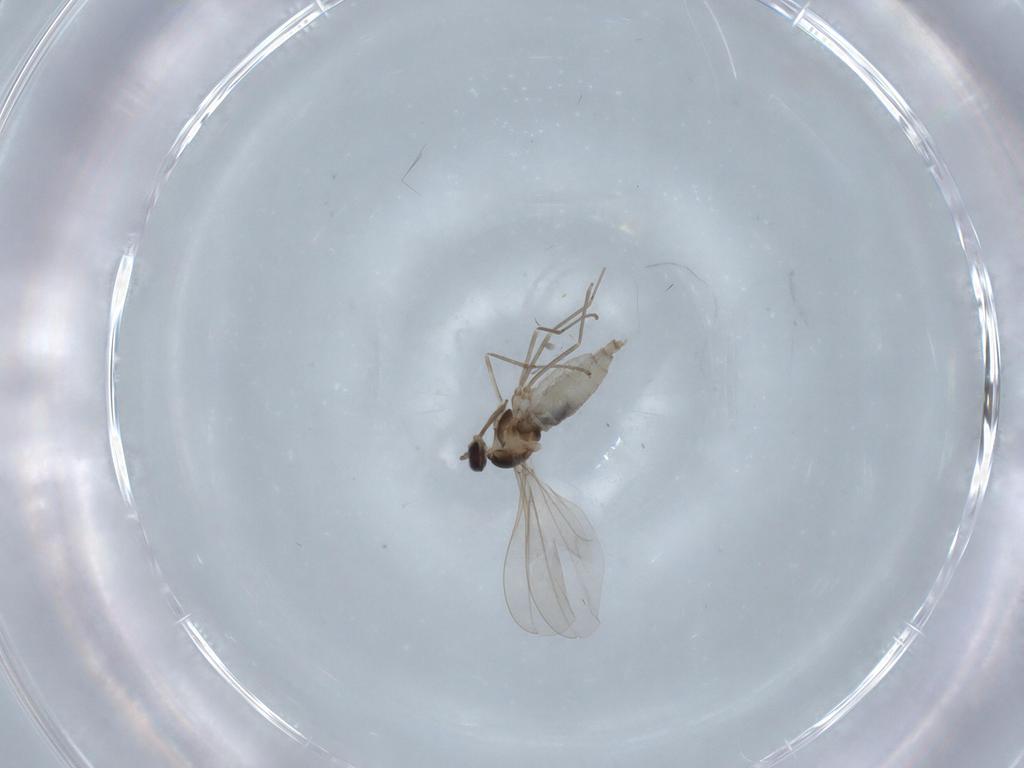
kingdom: Animalia
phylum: Arthropoda
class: Insecta
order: Diptera
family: Cecidomyiidae
